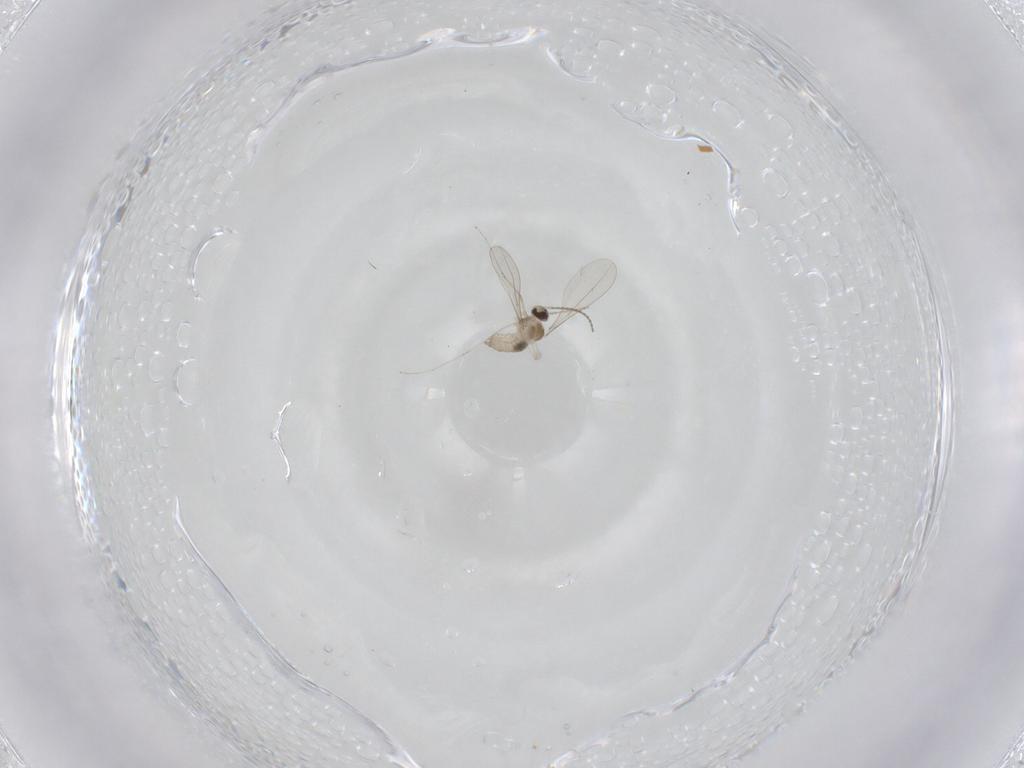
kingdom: Animalia
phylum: Arthropoda
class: Insecta
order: Diptera
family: Cecidomyiidae
